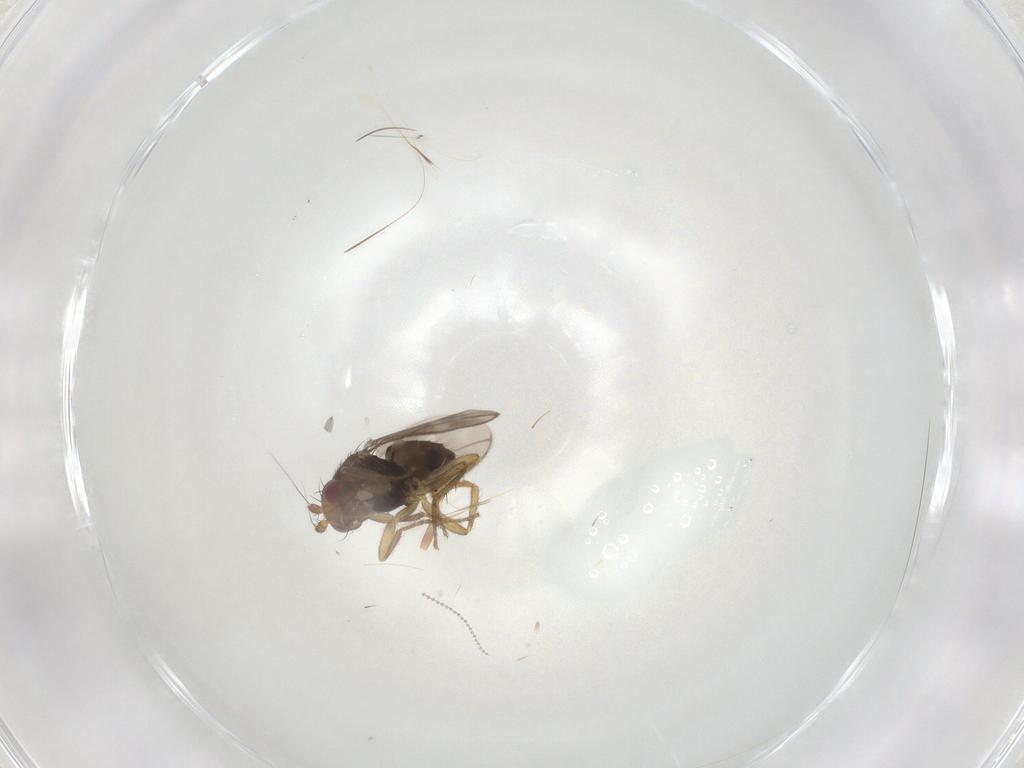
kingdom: Animalia
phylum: Arthropoda
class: Insecta
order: Diptera
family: Sphaeroceridae
